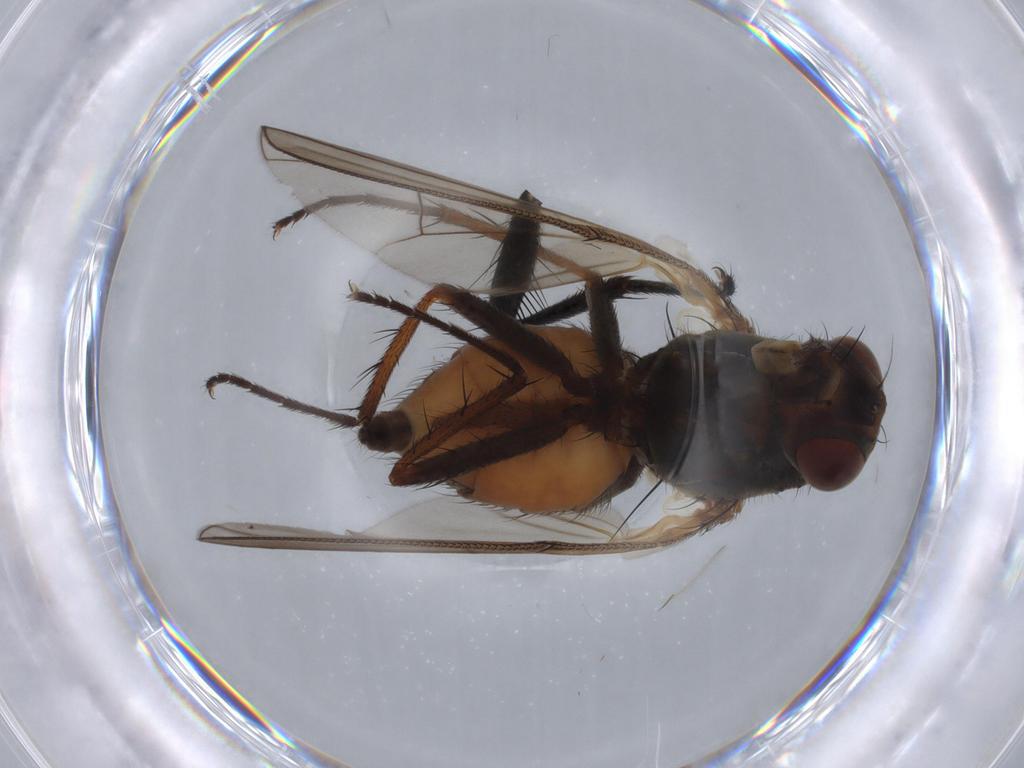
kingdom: Animalia
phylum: Arthropoda
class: Insecta
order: Diptera
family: Anthomyiidae
